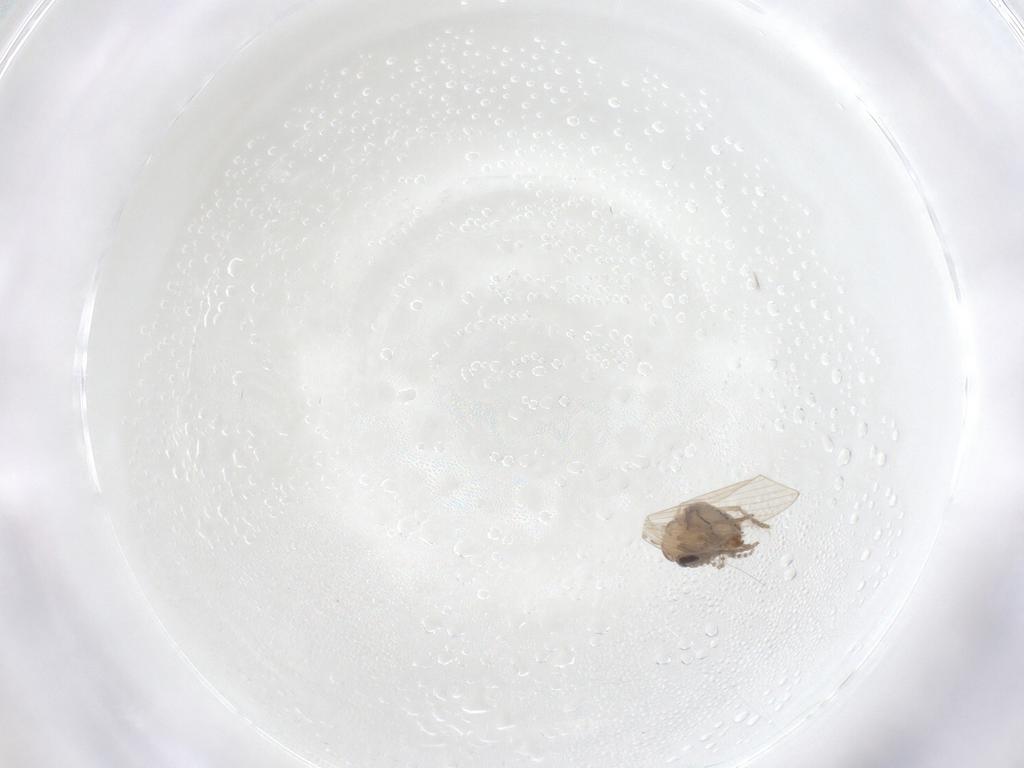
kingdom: Animalia
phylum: Arthropoda
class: Insecta
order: Diptera
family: Psychodidae
